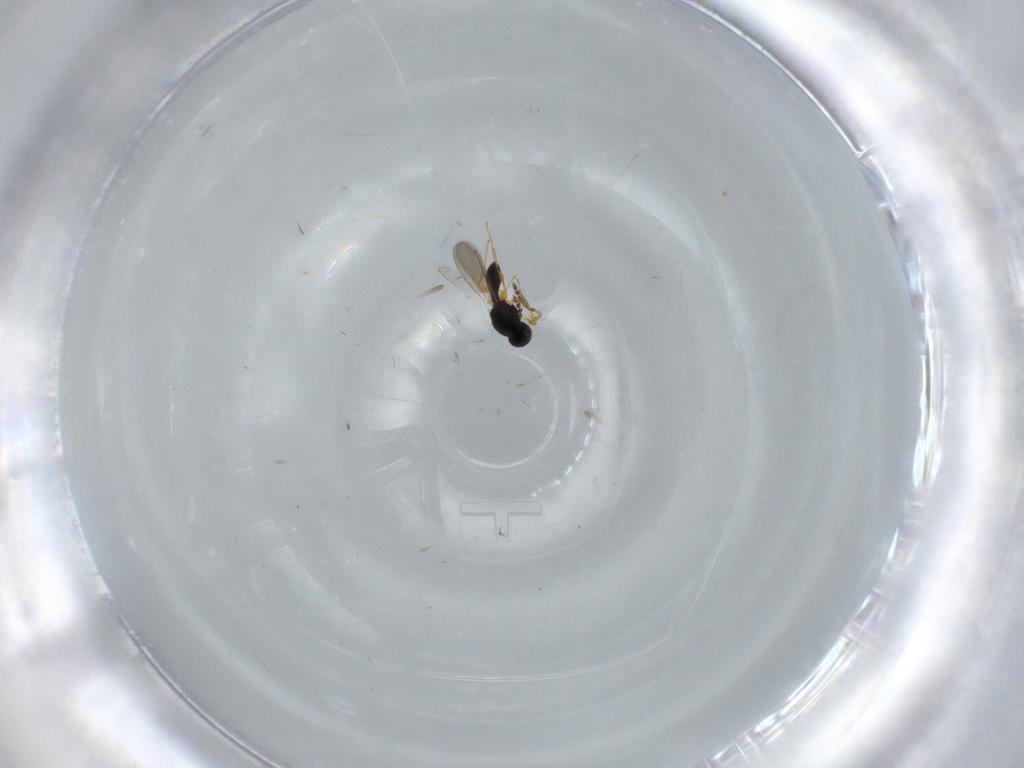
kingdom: Animalia
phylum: Arthropoda
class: Insecta
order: Hymenoptera
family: Platygastridae
